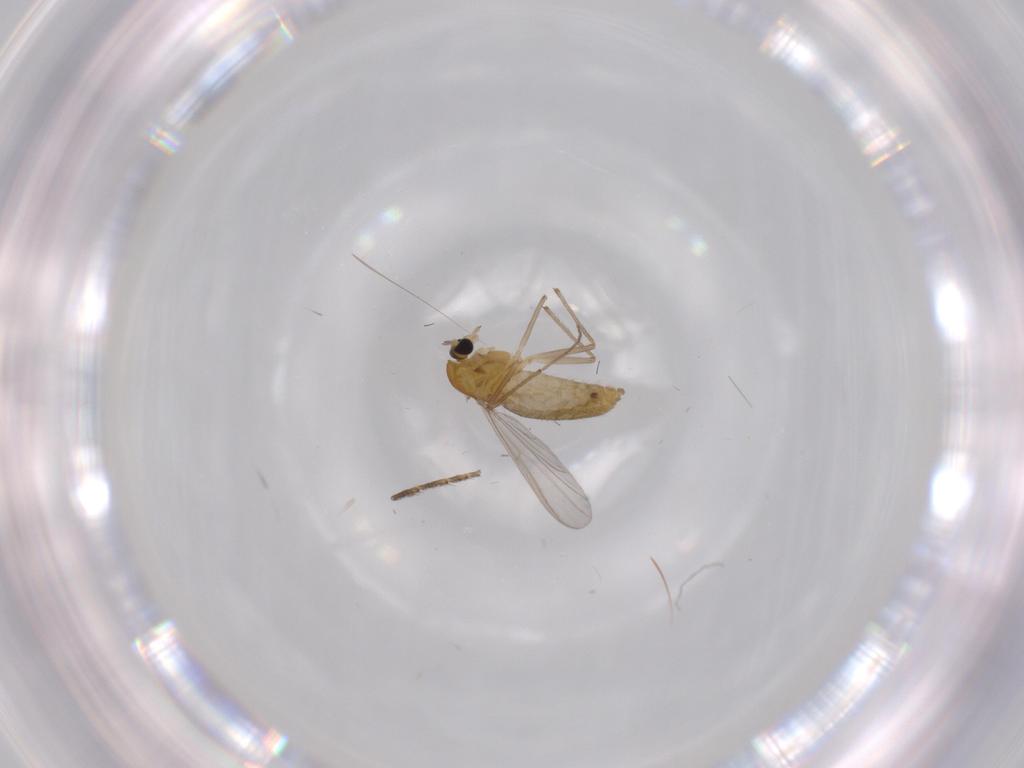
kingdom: Animalia
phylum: Arthropoda
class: Insecta
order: Diptera
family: Chironomidae
